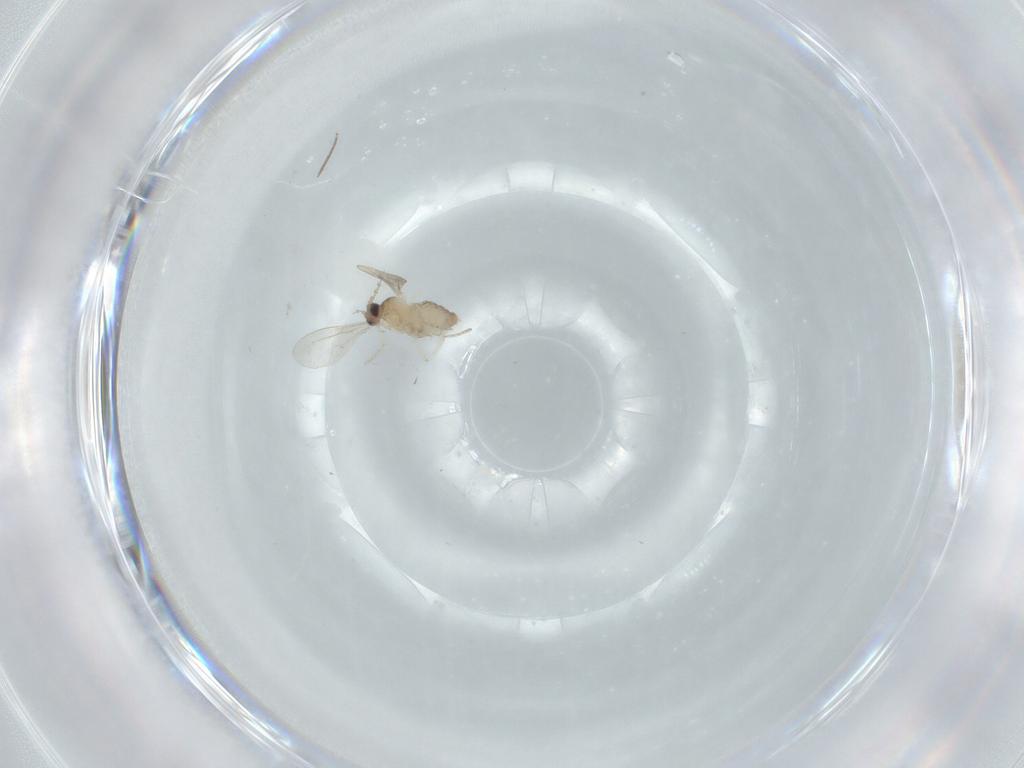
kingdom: Animalia
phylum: Arthropoda
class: Insecta
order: Diptera
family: Cecidomyiidae
